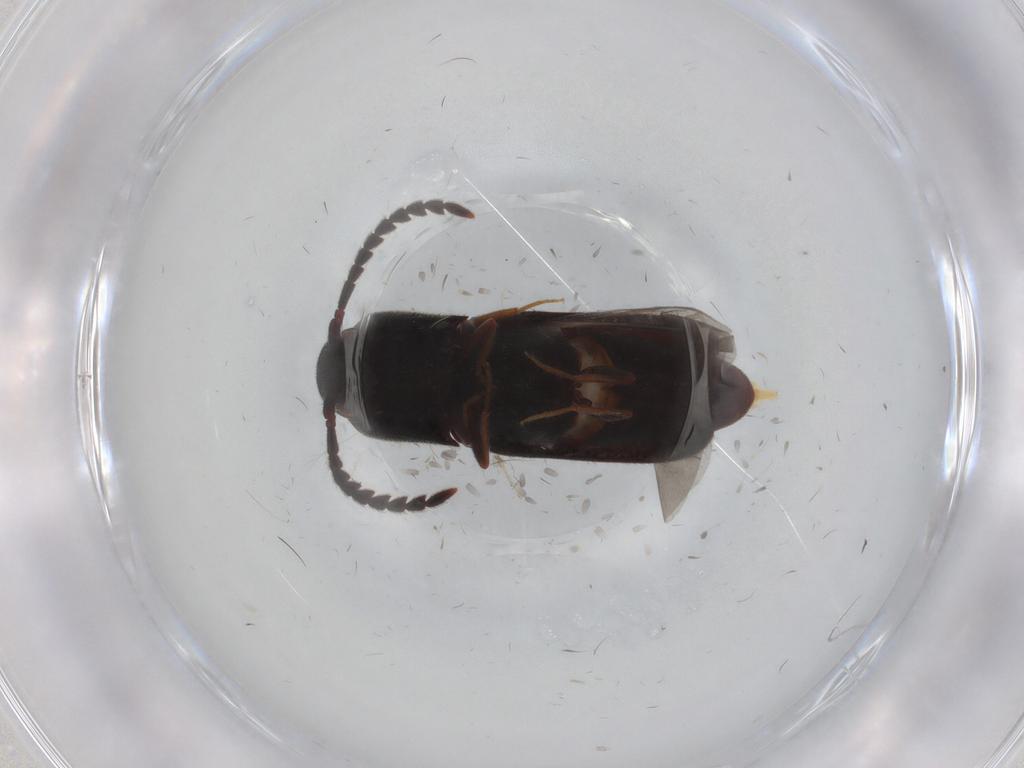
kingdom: Animalia
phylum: Arthropoda
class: Insecta
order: Coleoptera
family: Eucnemidae
